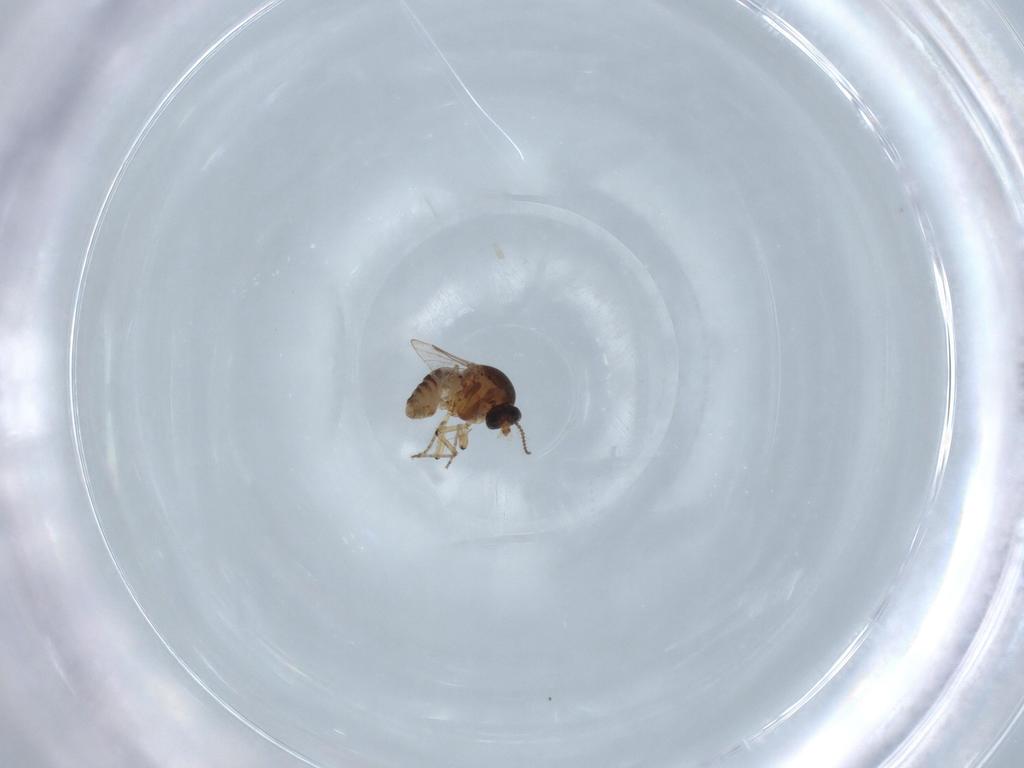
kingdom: Animalia
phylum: Arthropoda
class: Insecta
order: Diptera
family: Ceratopogonidae
